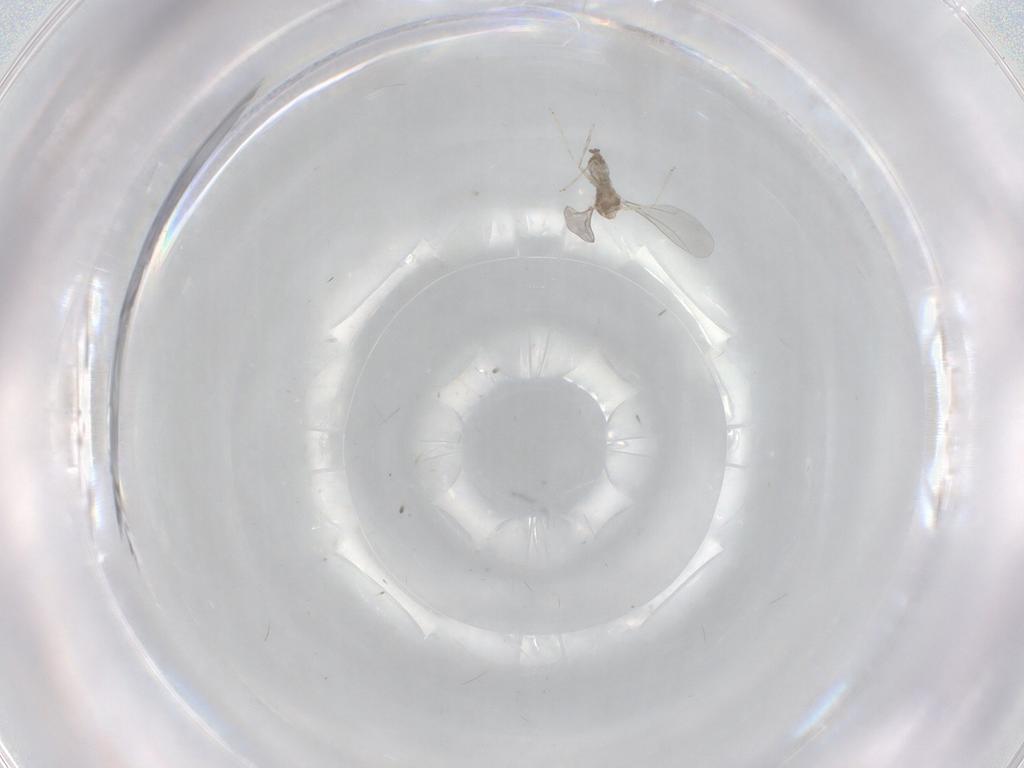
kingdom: Animalia
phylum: Arthropoda
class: Insecta
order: Diptera
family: Cecidomyiidae
